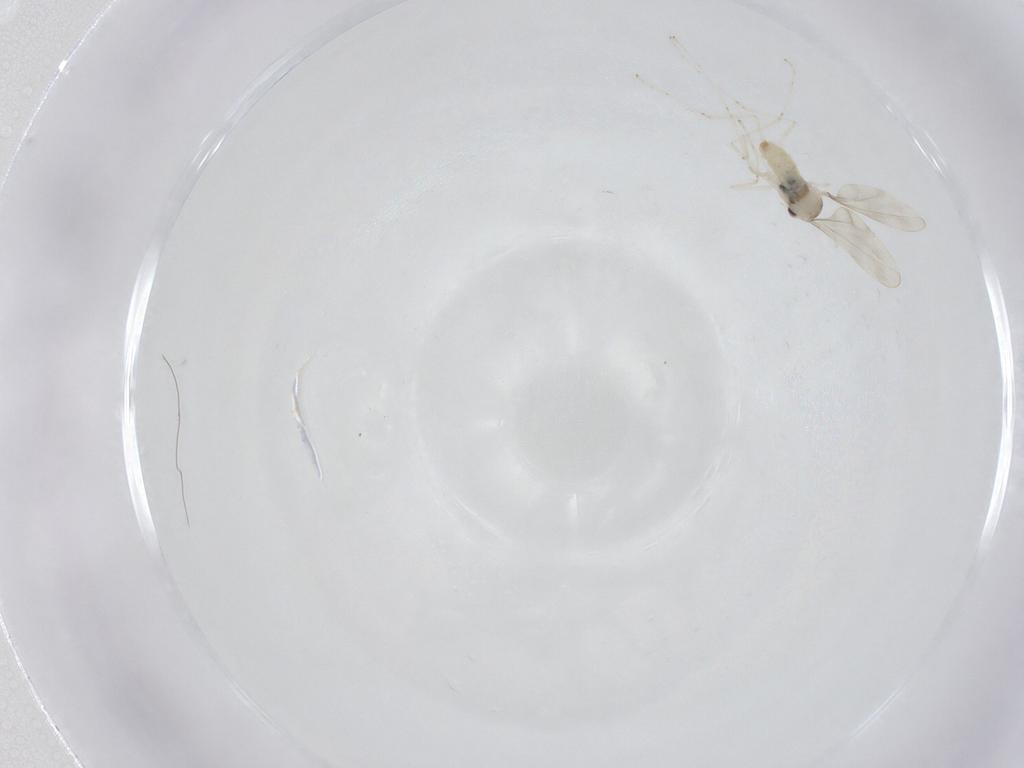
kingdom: Animalia
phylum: Arthropoda
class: Insecta
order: Diptera
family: Cecidomyiidae
